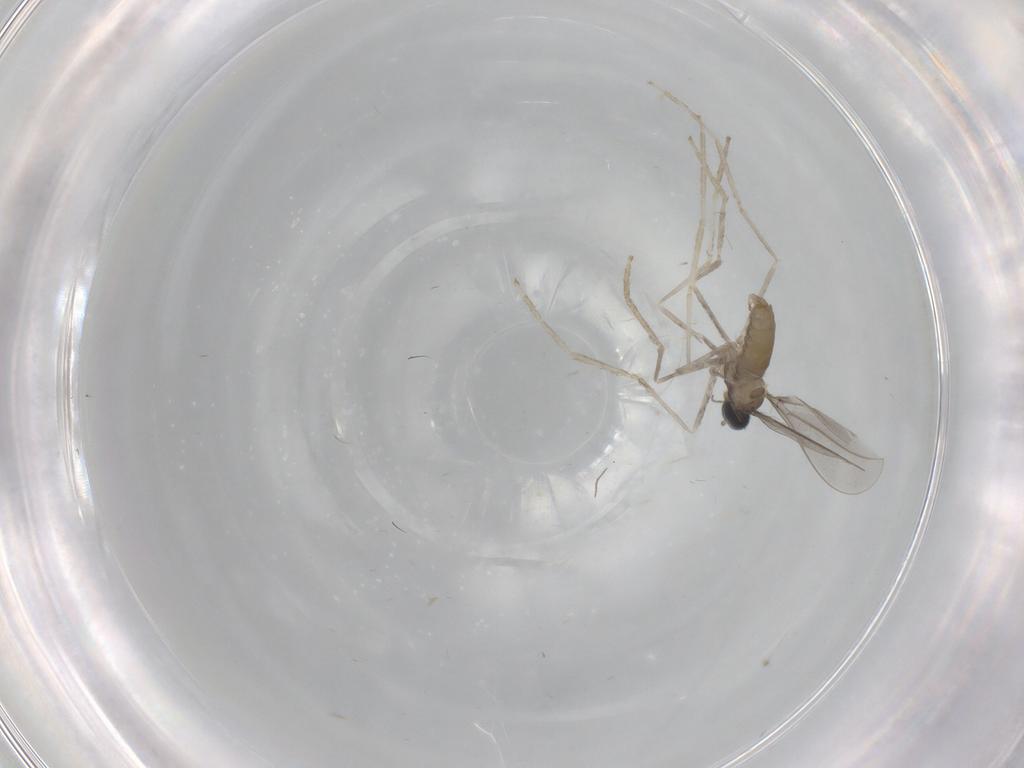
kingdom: Animalia
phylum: Arthropoda
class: Insecta
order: Diptera
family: Cecidomyiidae
